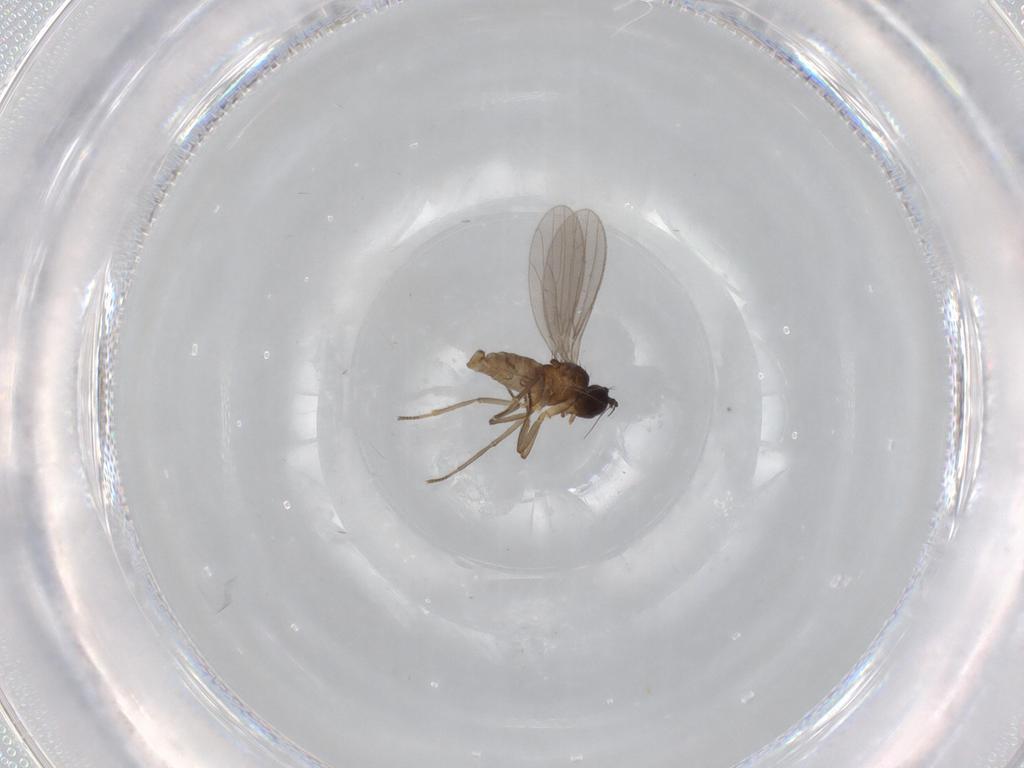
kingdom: Animalia
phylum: Arthropoda
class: Insecta
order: Diptera
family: Empididae
